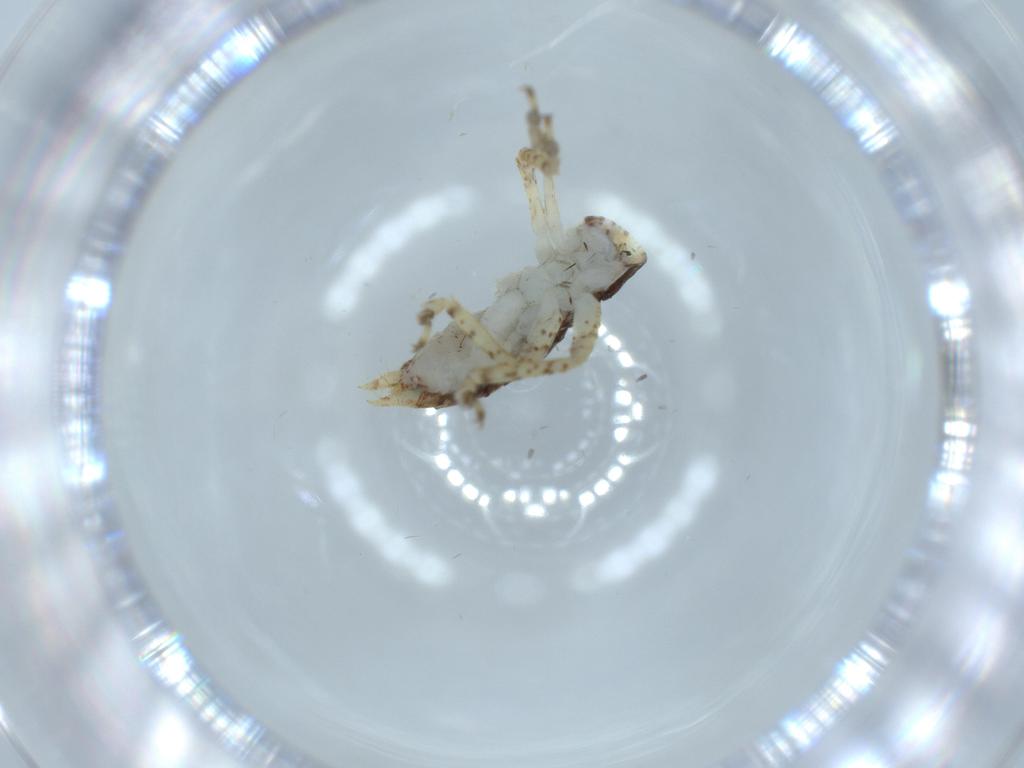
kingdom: Animalia
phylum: Arthropoda
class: Insecta
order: Orthoptera
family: Gryllidae
